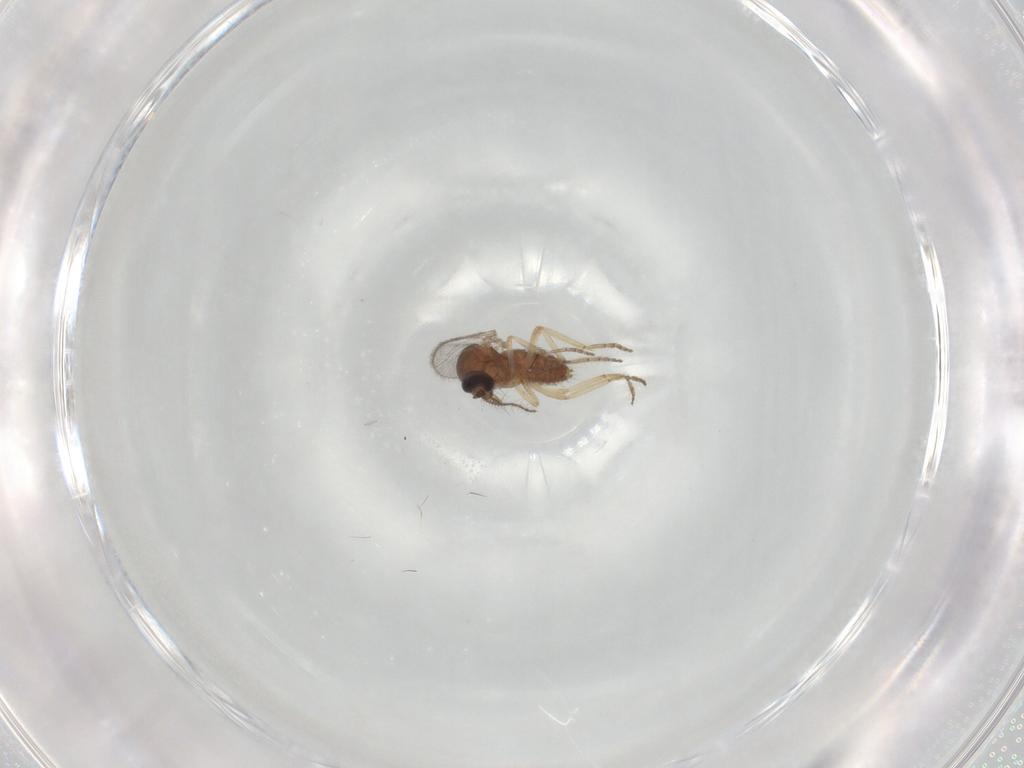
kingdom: Animalia
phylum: Arthropoda
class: Insecta
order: Diptera
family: Ceratopogonidae
